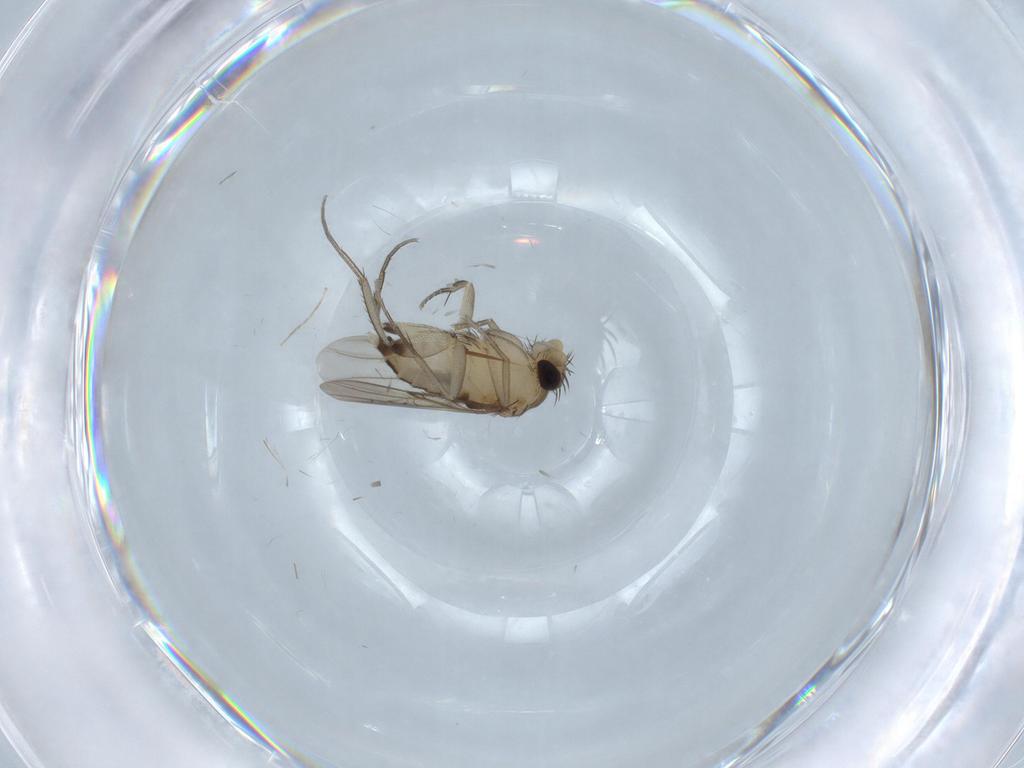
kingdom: Animalia
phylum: Arthropoda
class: Insecta
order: Diptera
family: Phoridae
